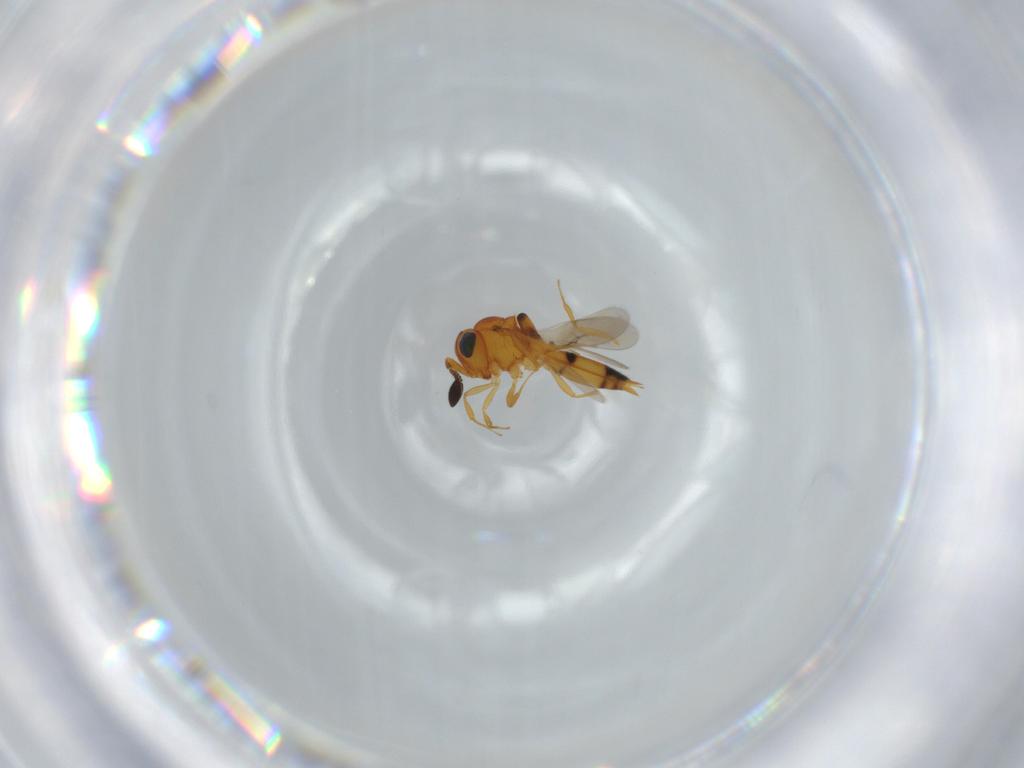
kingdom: Animalia
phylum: Arthropoda
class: Insecta
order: Hymenoptera
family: Scelionidae
